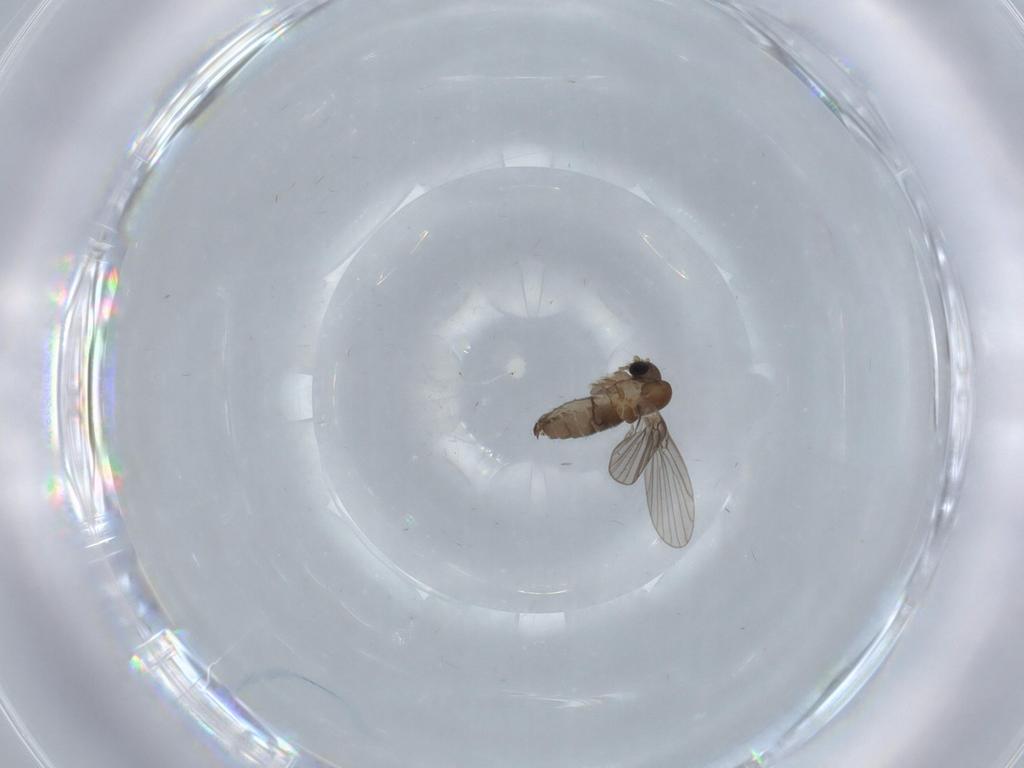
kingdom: Animalia
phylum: Arthropoda
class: Insecta
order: Diptera
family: Psychodidae
